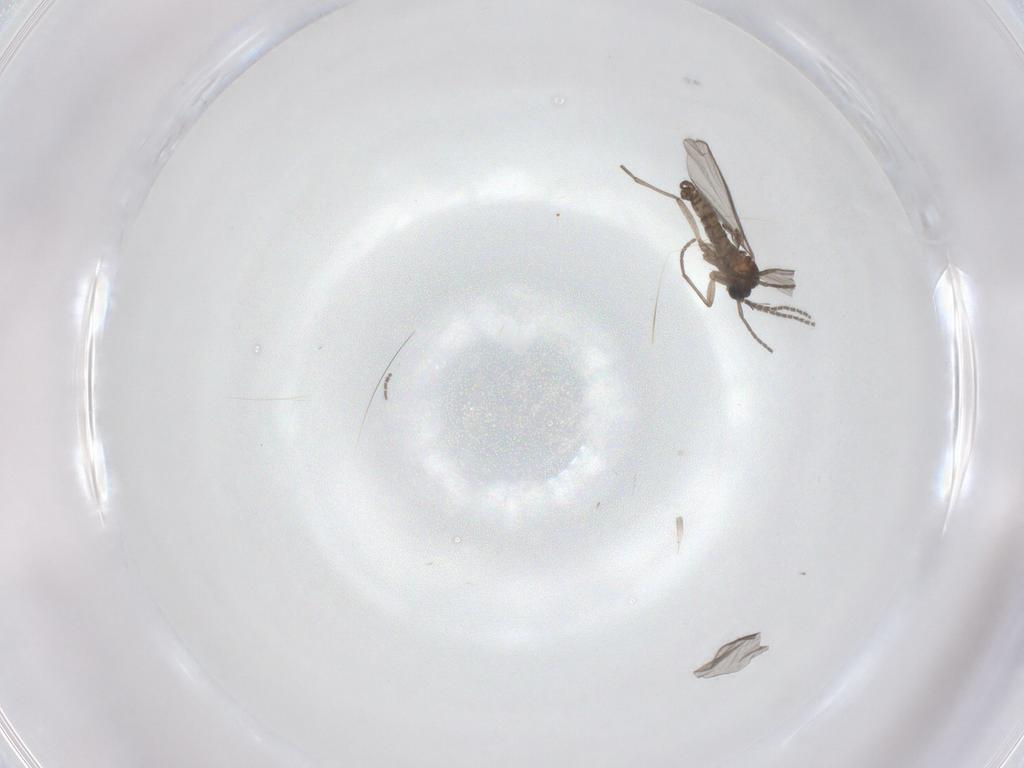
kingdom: Animalia
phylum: Arthropoda
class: Insecta
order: Diptera
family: Sciaridae
